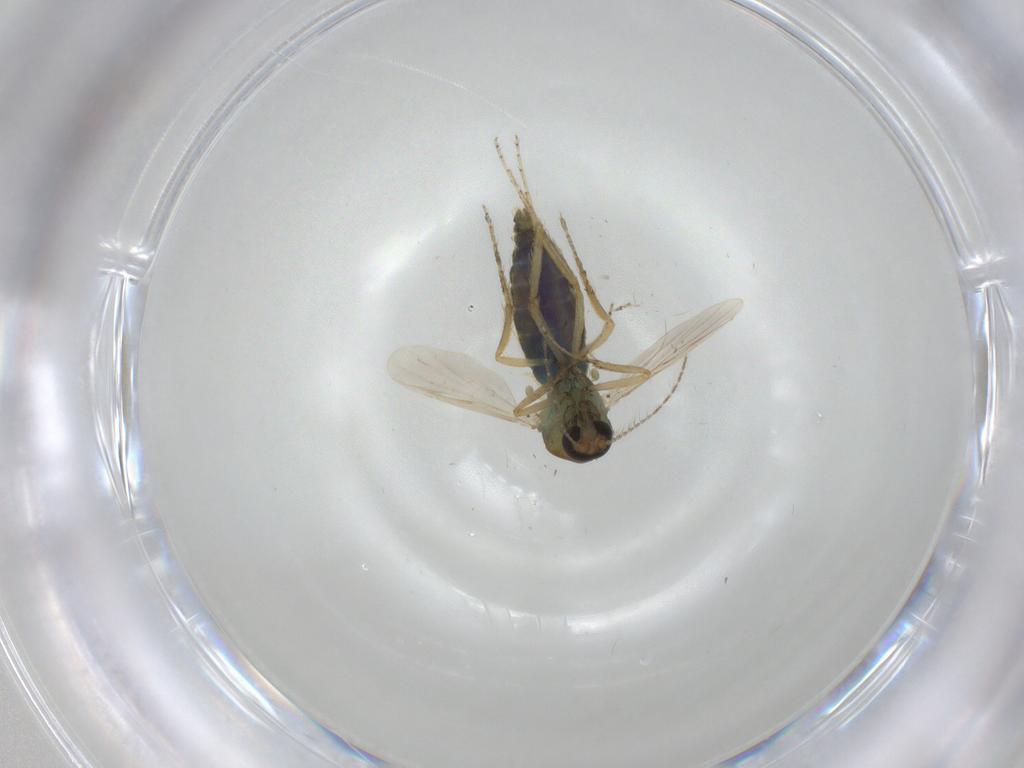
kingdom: Animalia
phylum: Arthropoda
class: Insecta
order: Diptera
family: Ceratopogonidae
